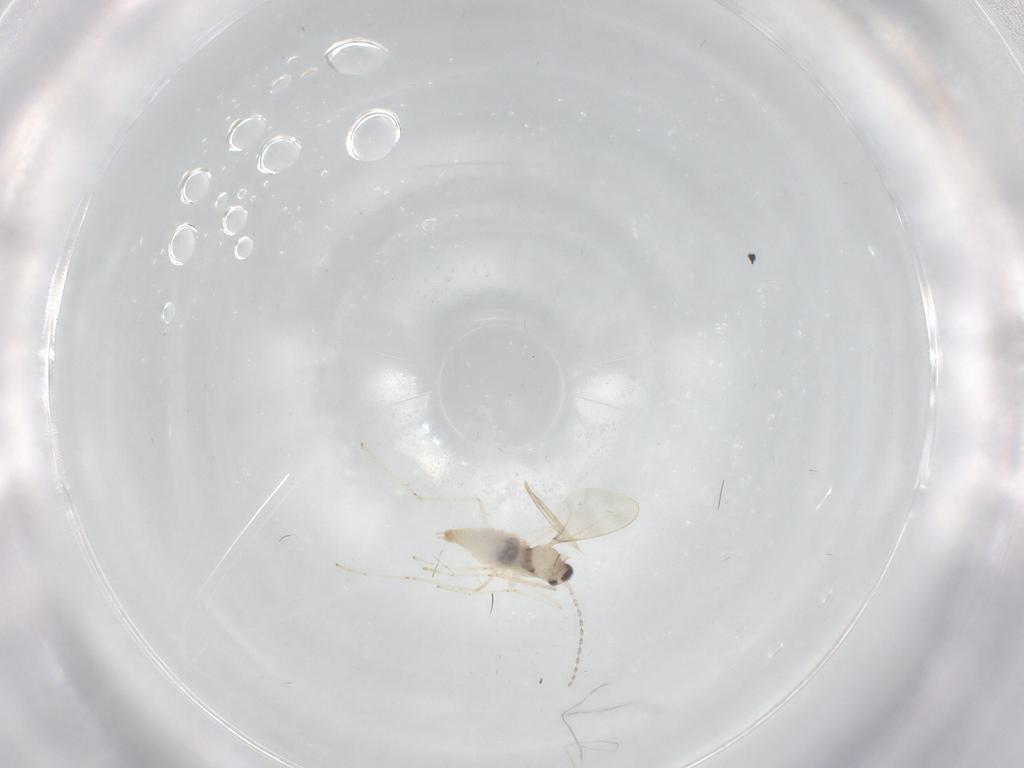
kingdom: Animalia
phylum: Arthropoda
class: Insecta
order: Diptera
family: Cecidomyiidae
